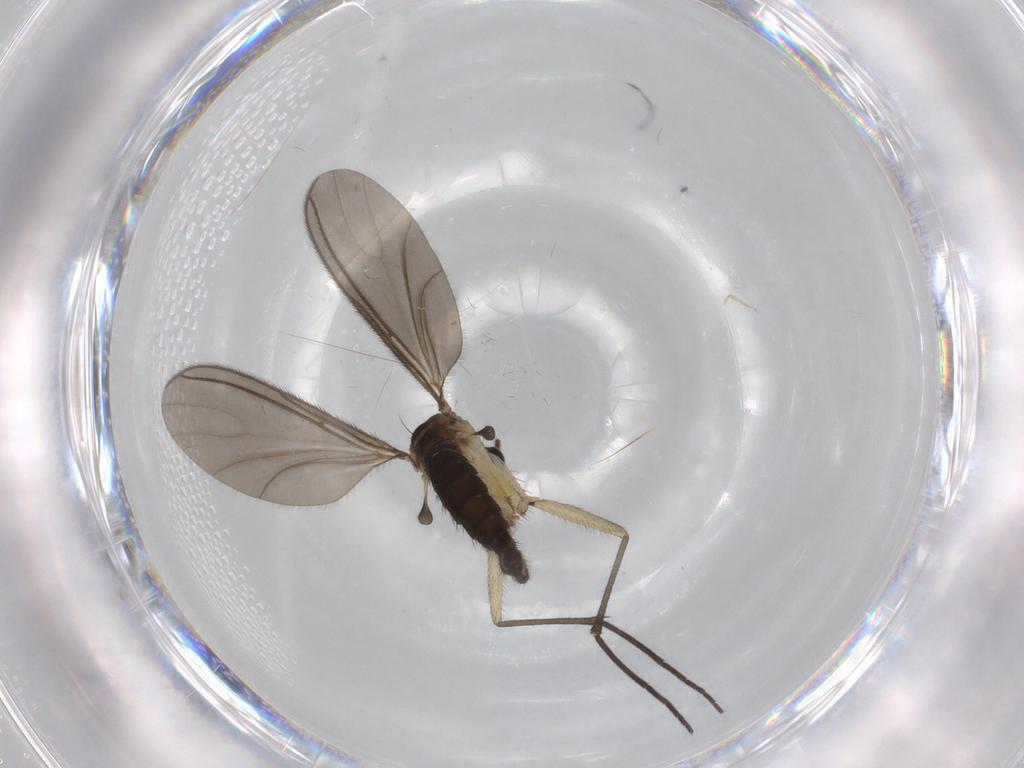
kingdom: Animalia
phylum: Arthropoda
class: Insecta
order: Diptera
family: Sciaridae
